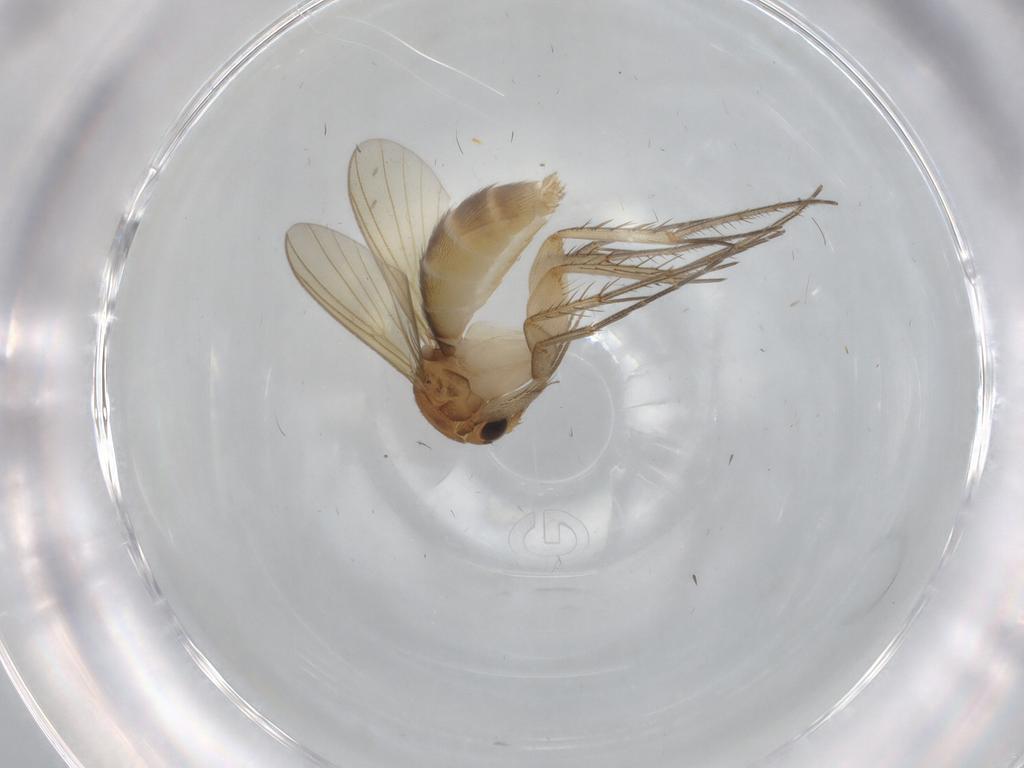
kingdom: Animalia
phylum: Arthropoda
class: Insecta
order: Diptera
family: Mycetophilidae
